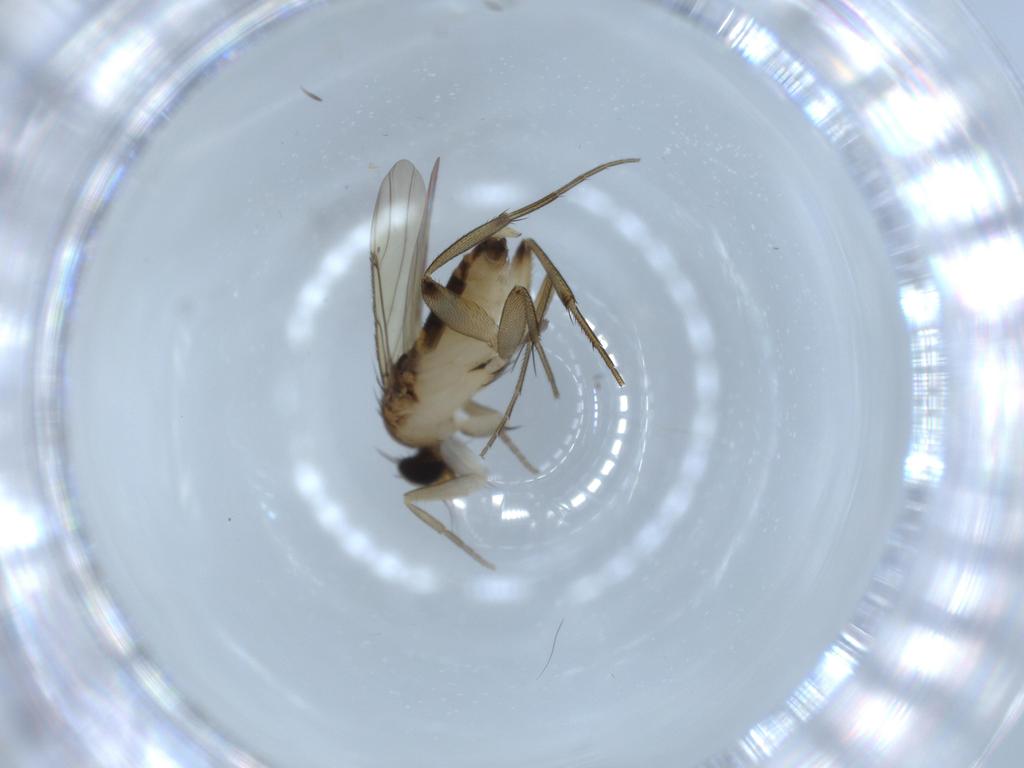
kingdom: Animalia
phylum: Arthropoda
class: Insecta
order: Diptera
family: Phoridae
